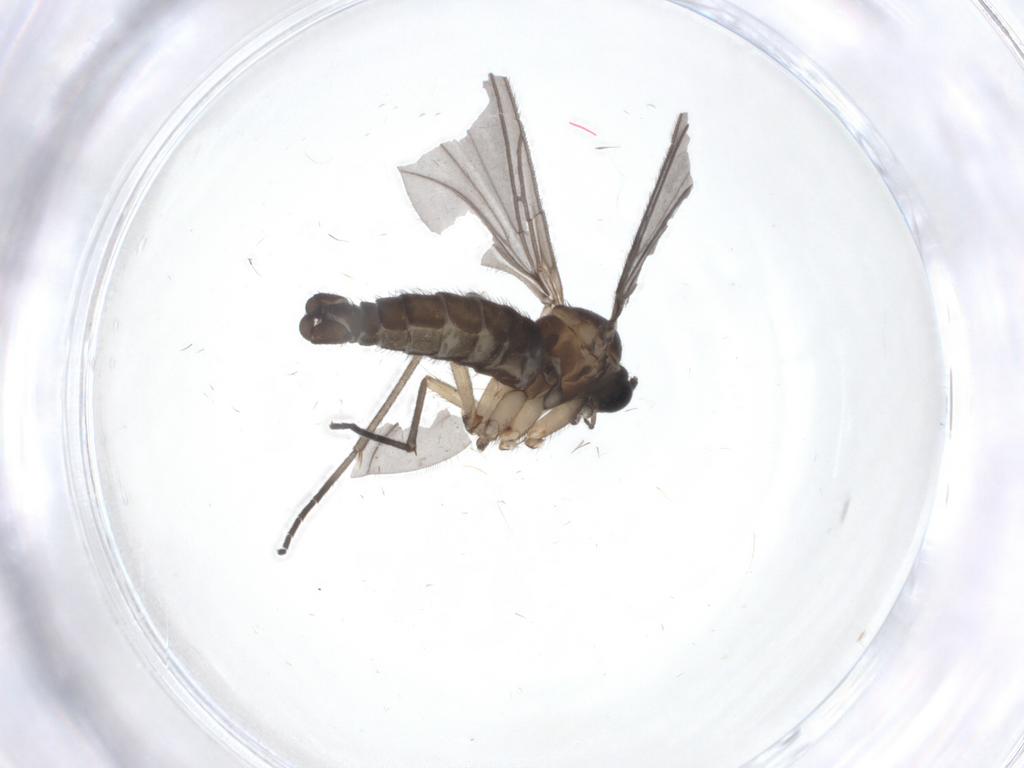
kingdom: Animalia
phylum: Arthropoda
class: Insecta
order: Diptera
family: Sciaridae
